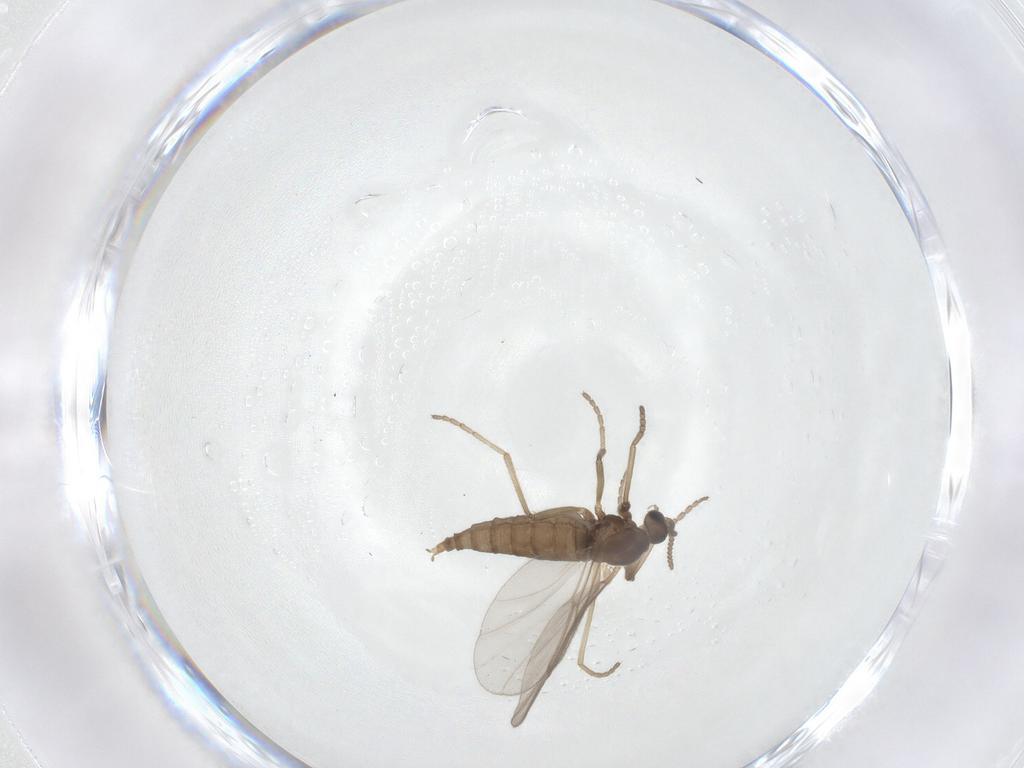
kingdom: Animalia
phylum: Arthropoda
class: Insecta
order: Diptera
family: Cecidomyiidae
